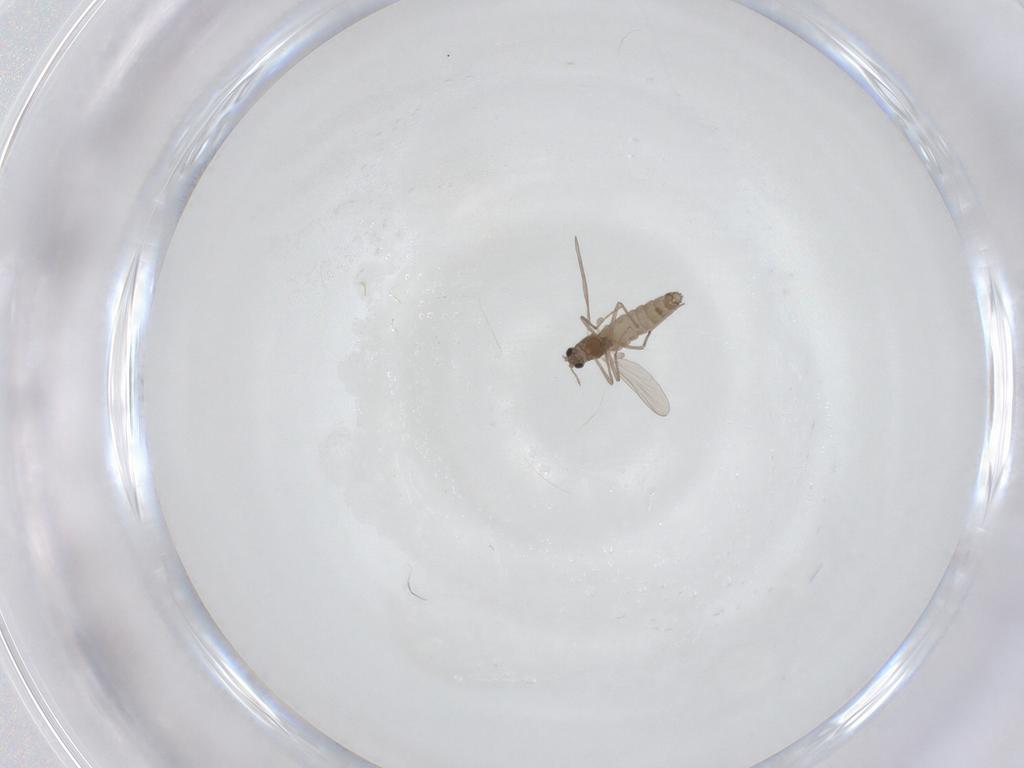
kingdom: Animalia
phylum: Arthropoda
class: Insecta
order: Diptera
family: Chironomidae
